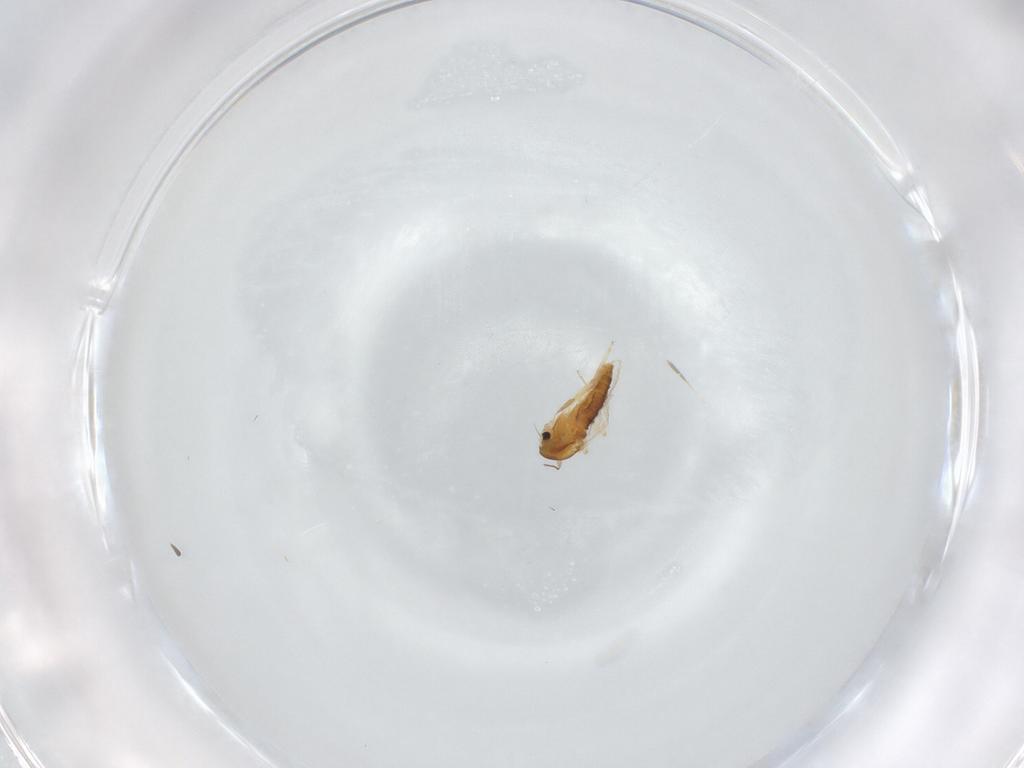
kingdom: Animalia
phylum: Arthropoda
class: Insecta
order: Diptera
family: Chironomidae
